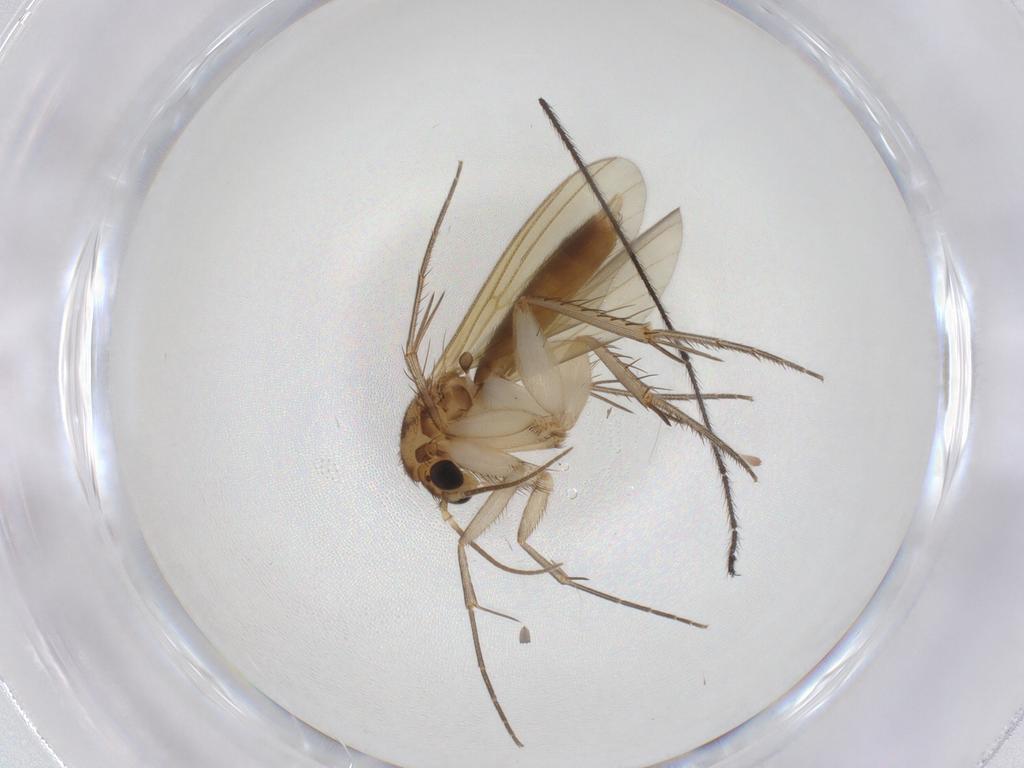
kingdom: Animalia
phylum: Arthropoda
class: Insecta
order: Diptera
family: Mycetophilidae
